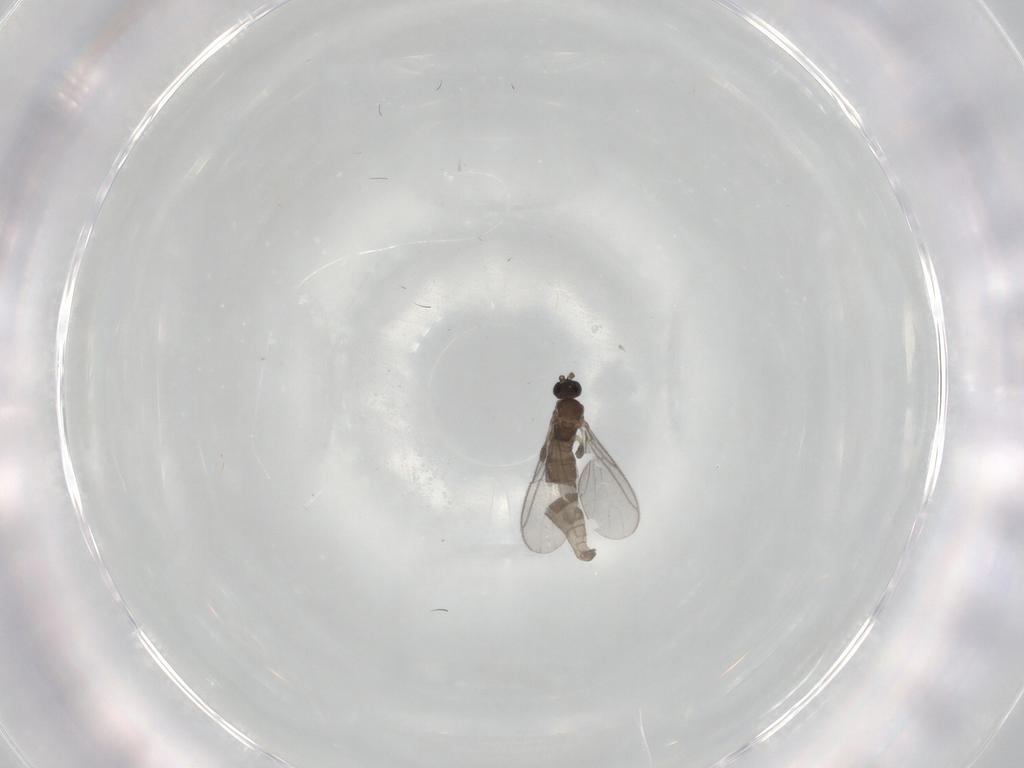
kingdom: Animalia
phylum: Arthropoda
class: Insecta
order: Diptera
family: Sciaridae
